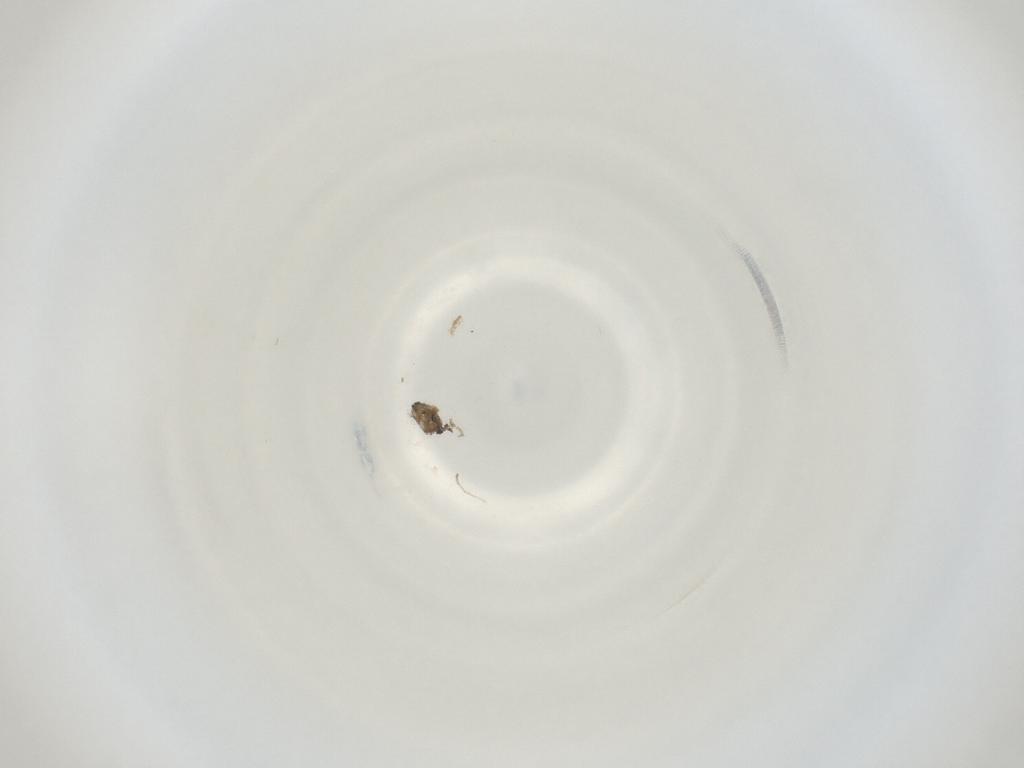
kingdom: Animalia
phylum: Arthropoda
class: Insecta
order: Diptera
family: Cecidomyiidae
